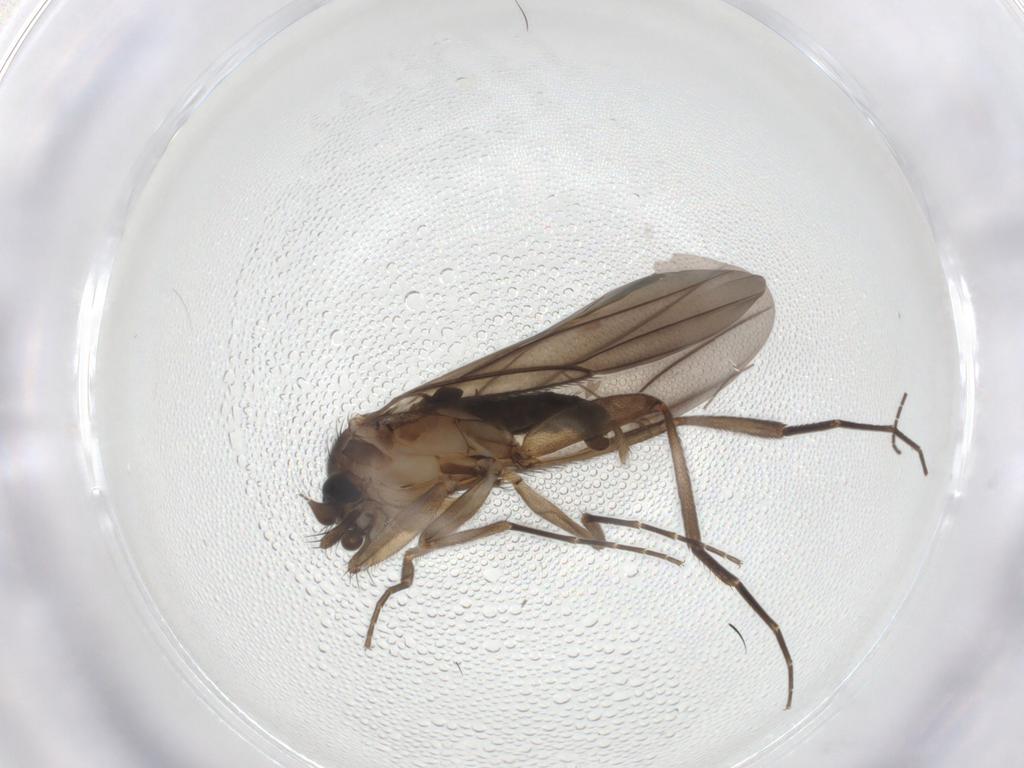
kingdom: Animalia
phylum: Arthropoda
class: Insecta
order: Diptera
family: Phoridae
